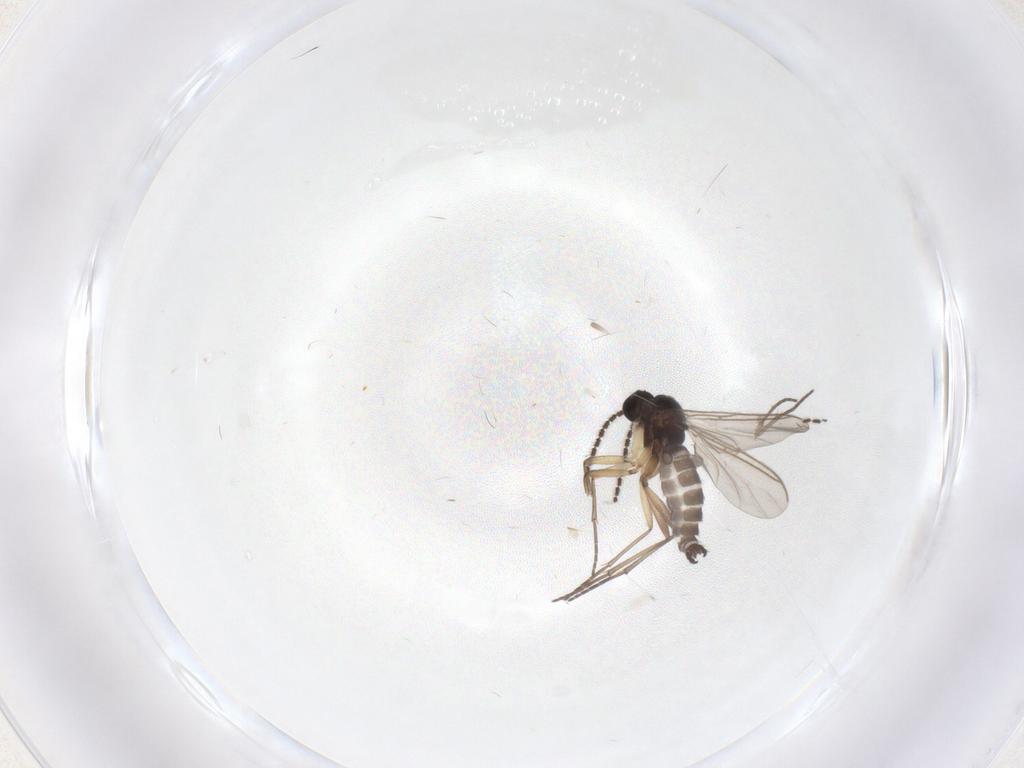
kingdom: Animalia
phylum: Arthropoda
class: Insecta
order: Diptera
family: Sciaridae
